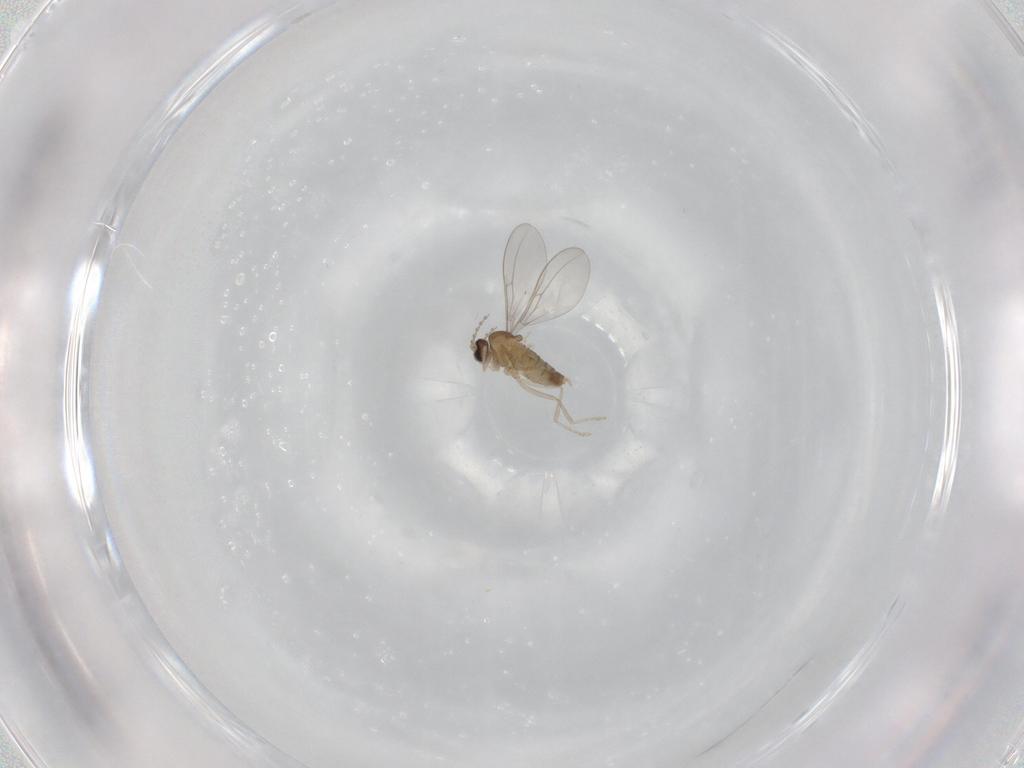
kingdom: Animalia
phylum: Arthropoda
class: Insecta
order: Diptera
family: Cecidomyiidae
